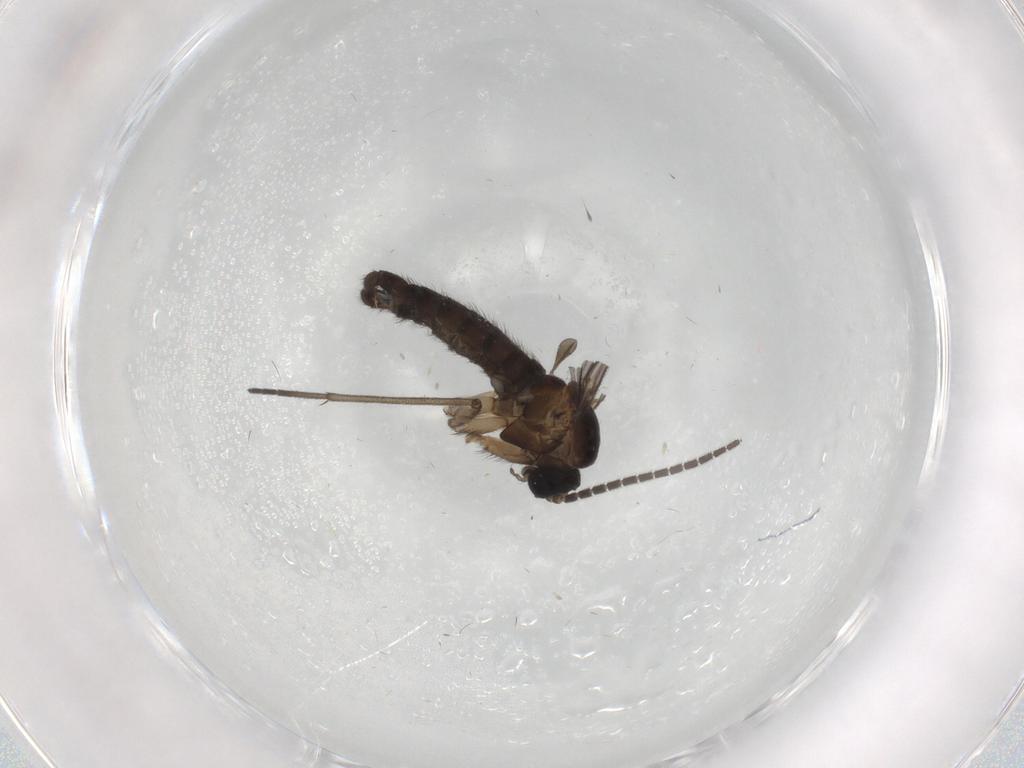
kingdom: Animalia
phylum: Arthropoda
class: Insecta
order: Diptera
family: Sciaridae
